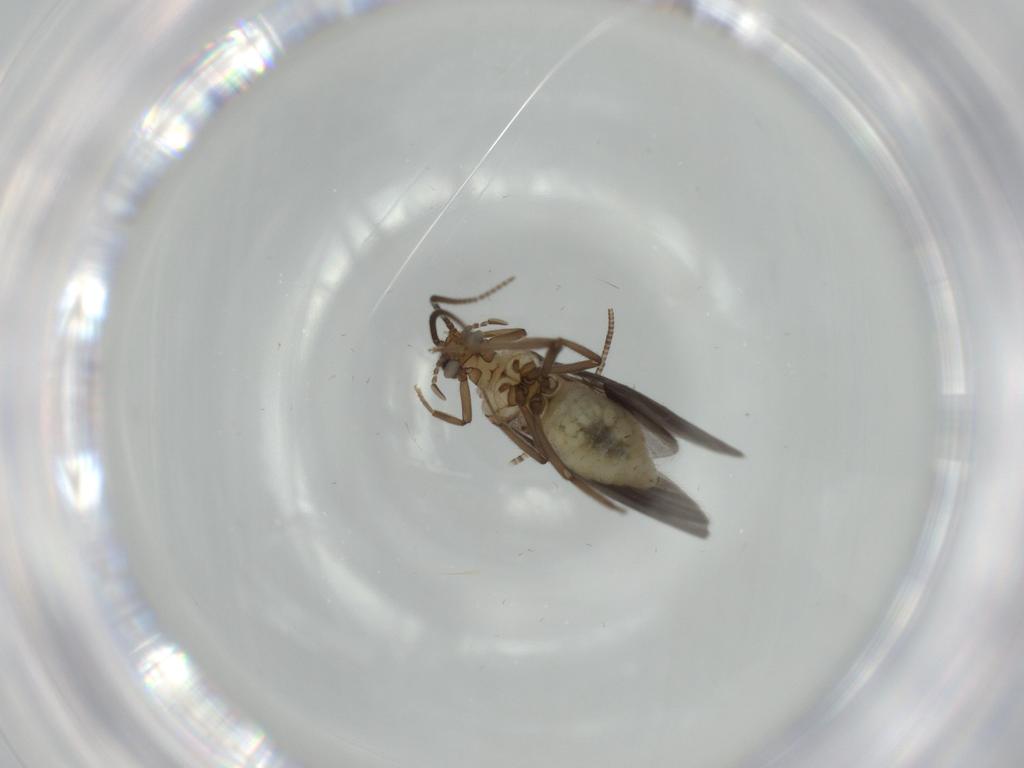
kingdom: Animalia
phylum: Arthropoda
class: Insecta
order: Neuroptera
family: Coniopterygidae
